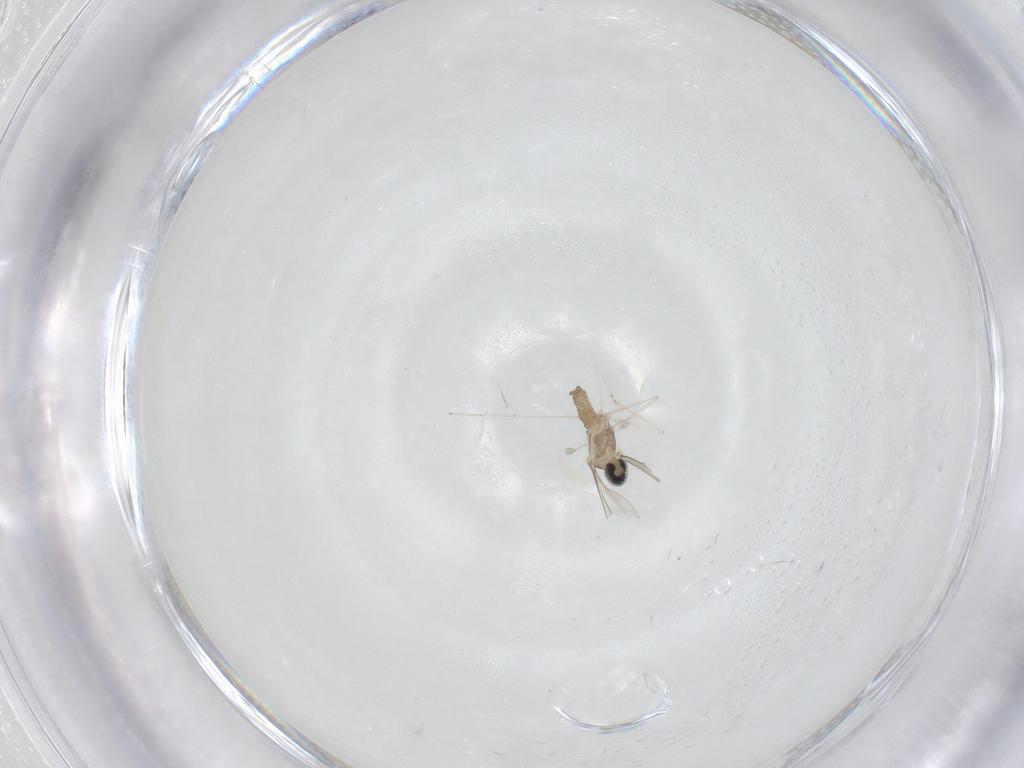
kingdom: Animalia
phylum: Arthropoda
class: Insecta
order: Diptera
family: Cecidomyiidae
